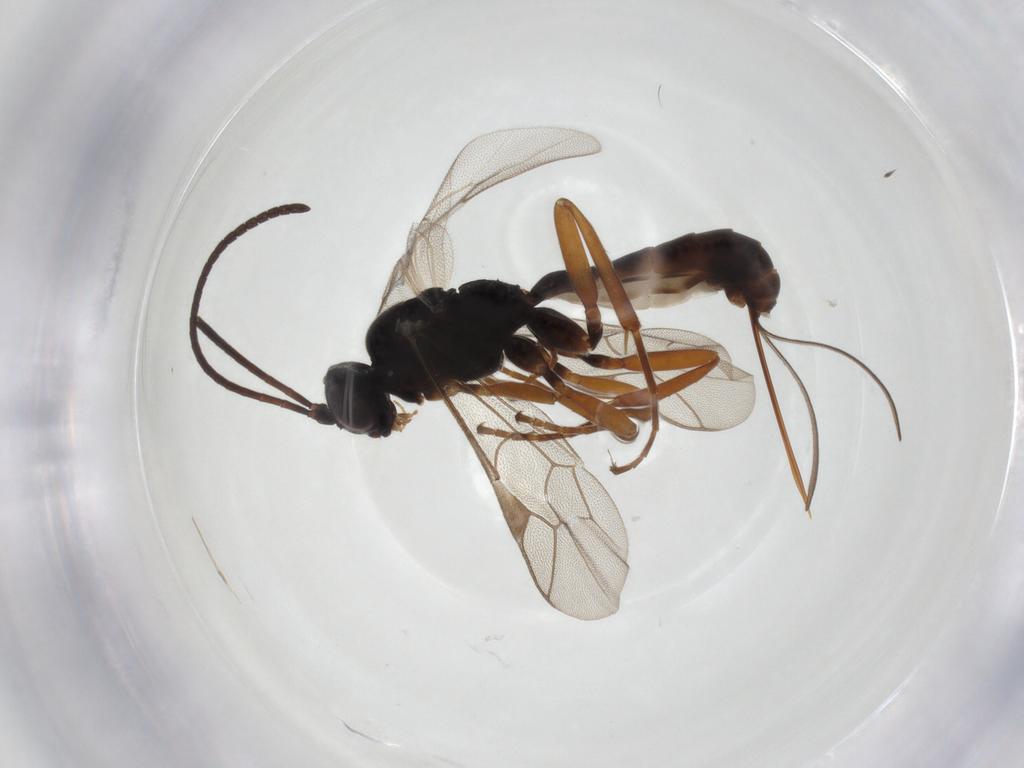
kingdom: Animalia
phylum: Arthropoda
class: Insecta
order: Hymenoptera
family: Ichneumonidae
